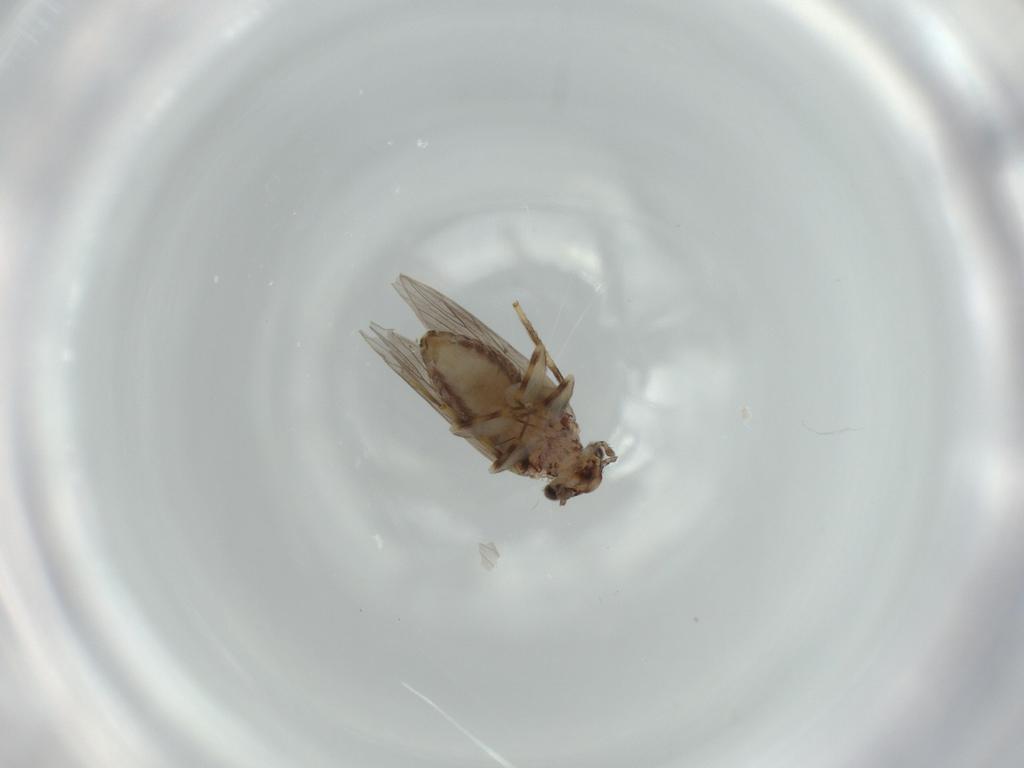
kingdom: Animalia
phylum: Arthropoda
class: Insecta
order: Psocodea
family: Lepidopsocidae
